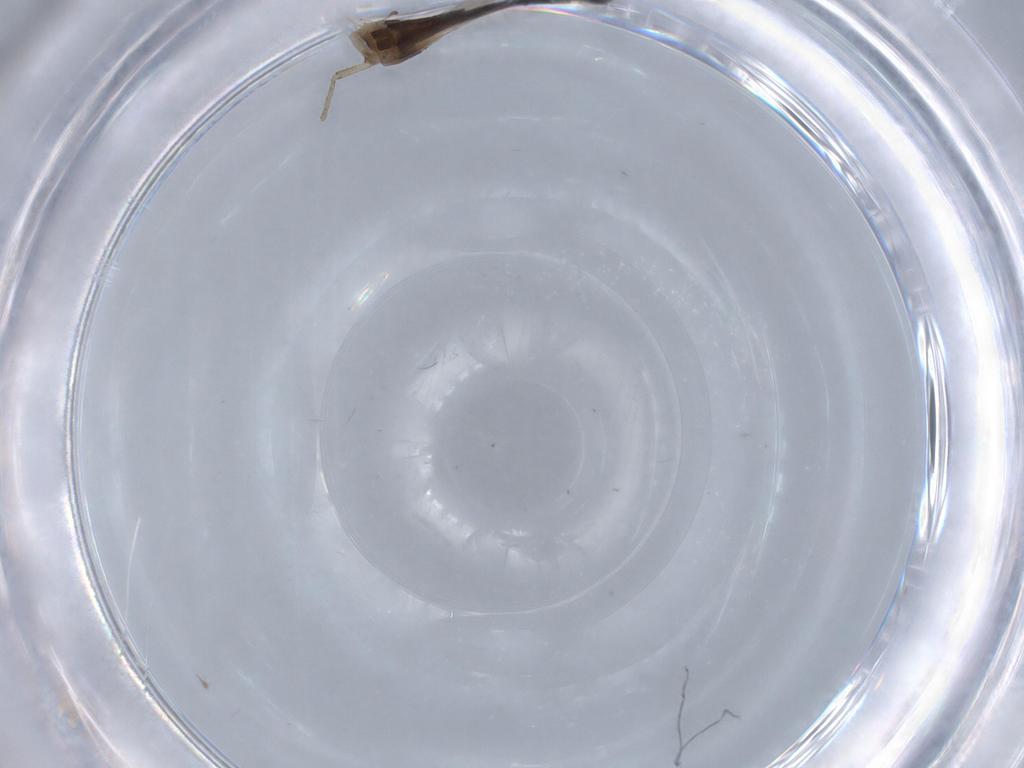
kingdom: Animalia
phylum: Arthropoda
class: Insecta
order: Diptera
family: Chironomidae
